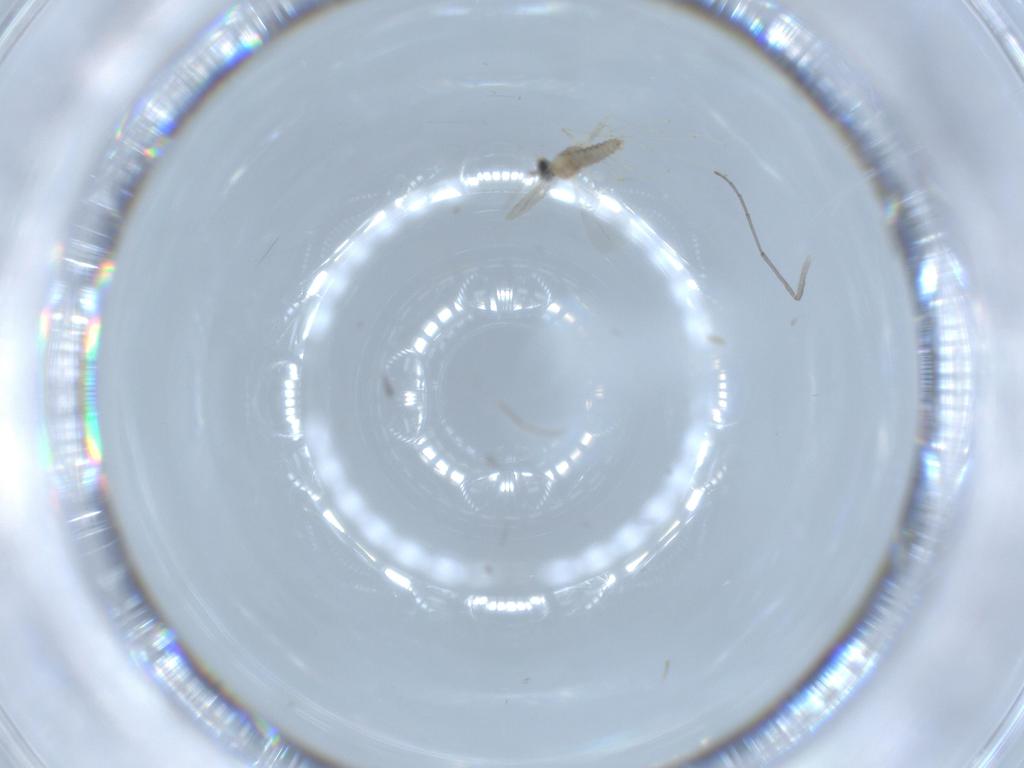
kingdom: Animalia
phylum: Arthropoda
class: Insecta
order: Diptera
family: Cecidomyiidae
